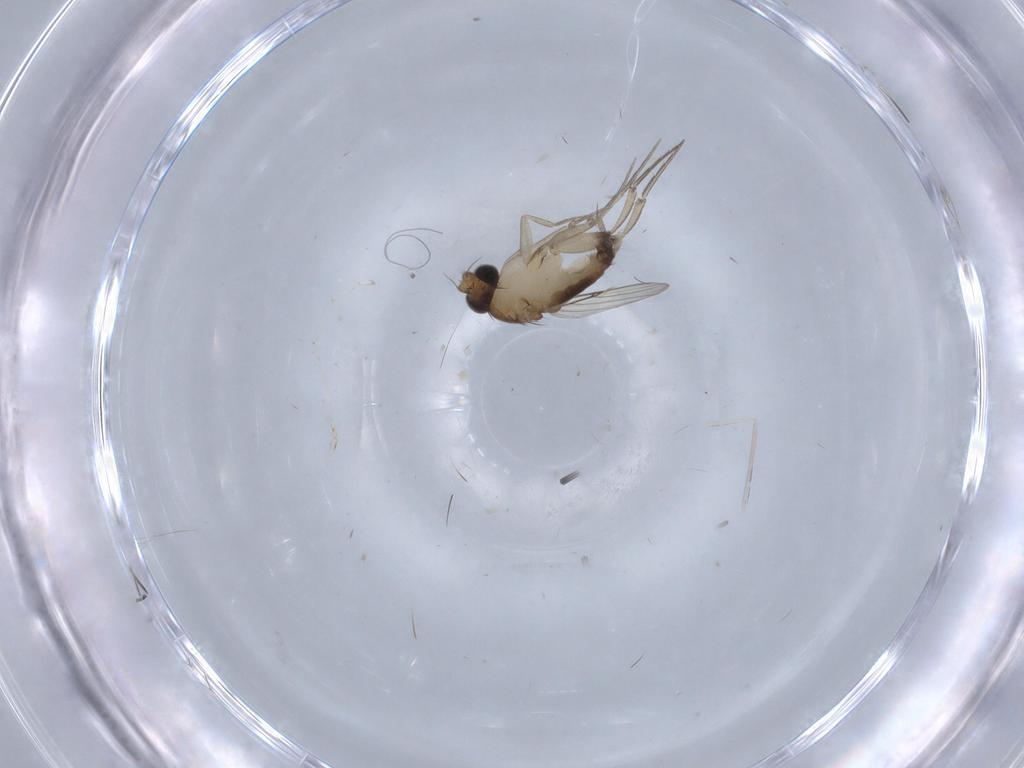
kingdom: Animalia
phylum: Arthropoda
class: Insecta
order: Diptera
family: Phoridae
